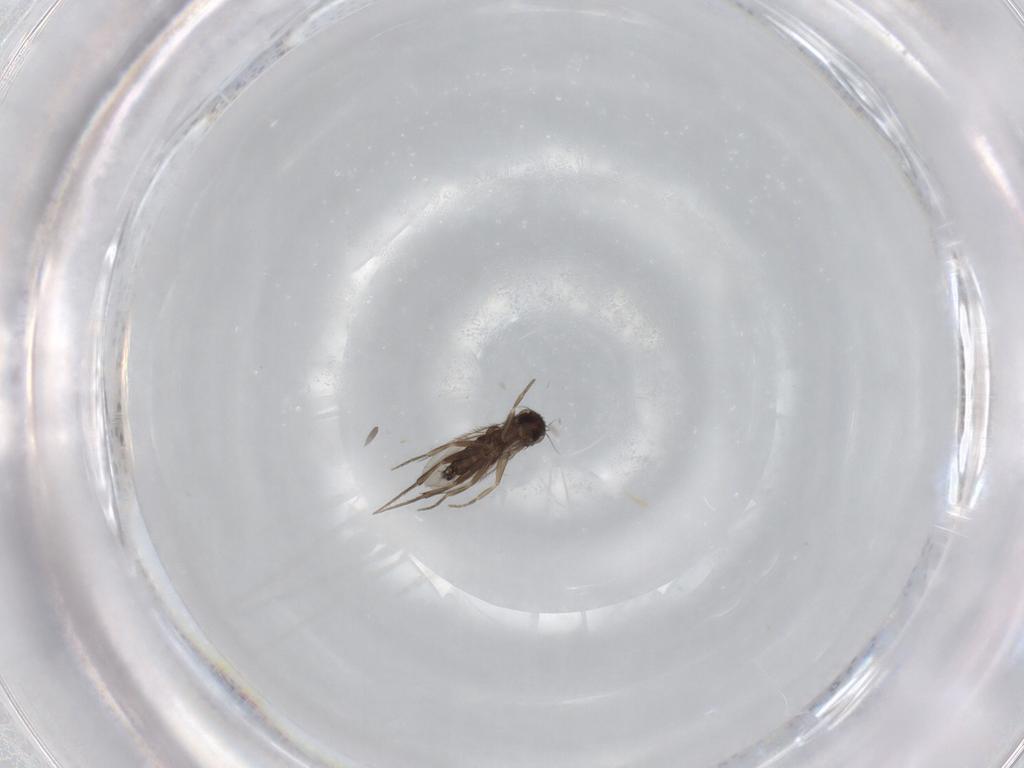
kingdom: Animalia
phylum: Arthropoda
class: Insecta
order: Diptera
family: Phoridae
